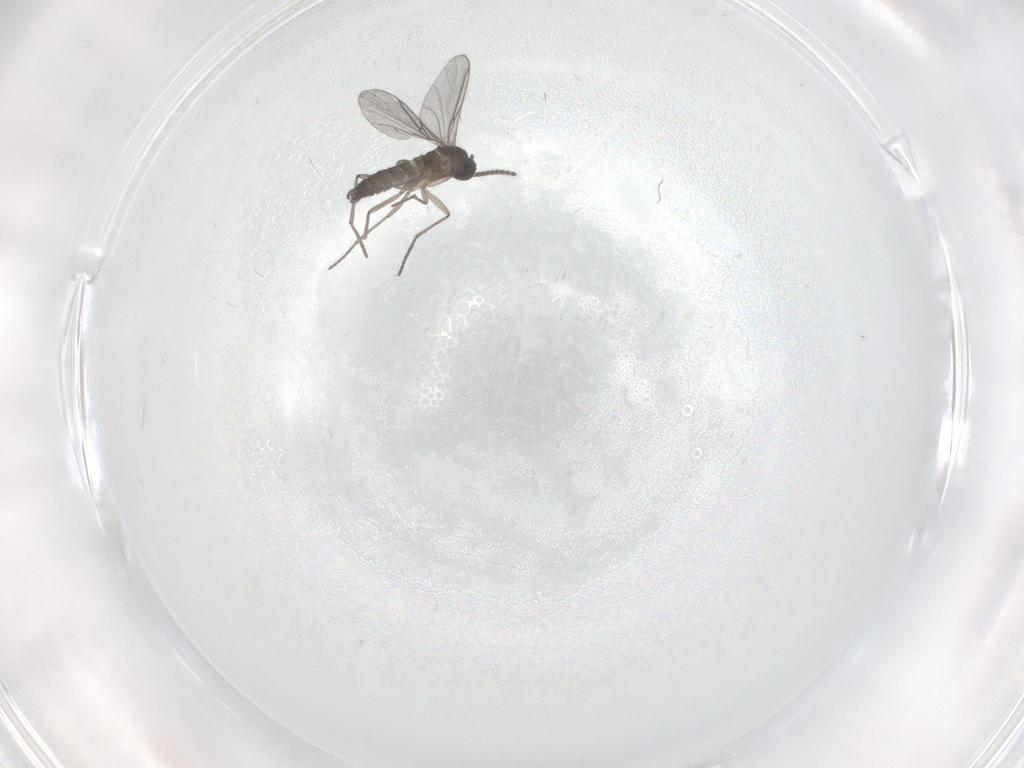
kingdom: Animalia
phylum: Arthropoda
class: Insecta
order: Diptera
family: Sciaridae
